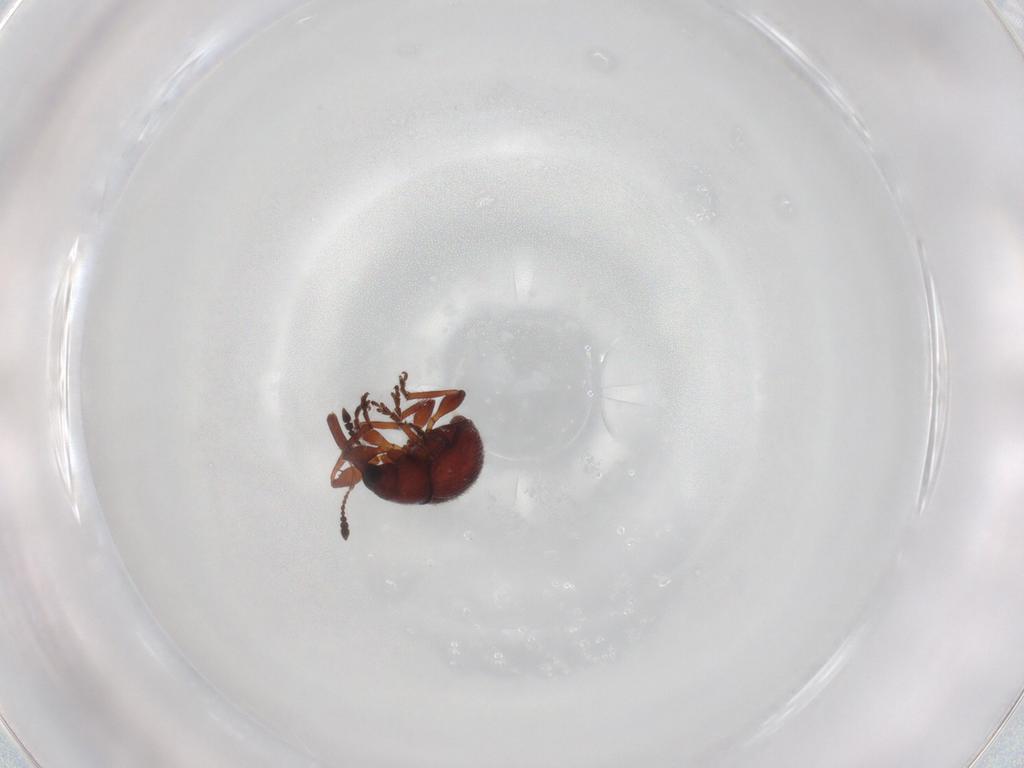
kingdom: Animalia
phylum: Arthropoda
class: Insecta
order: Coleoptera
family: Brentidae
